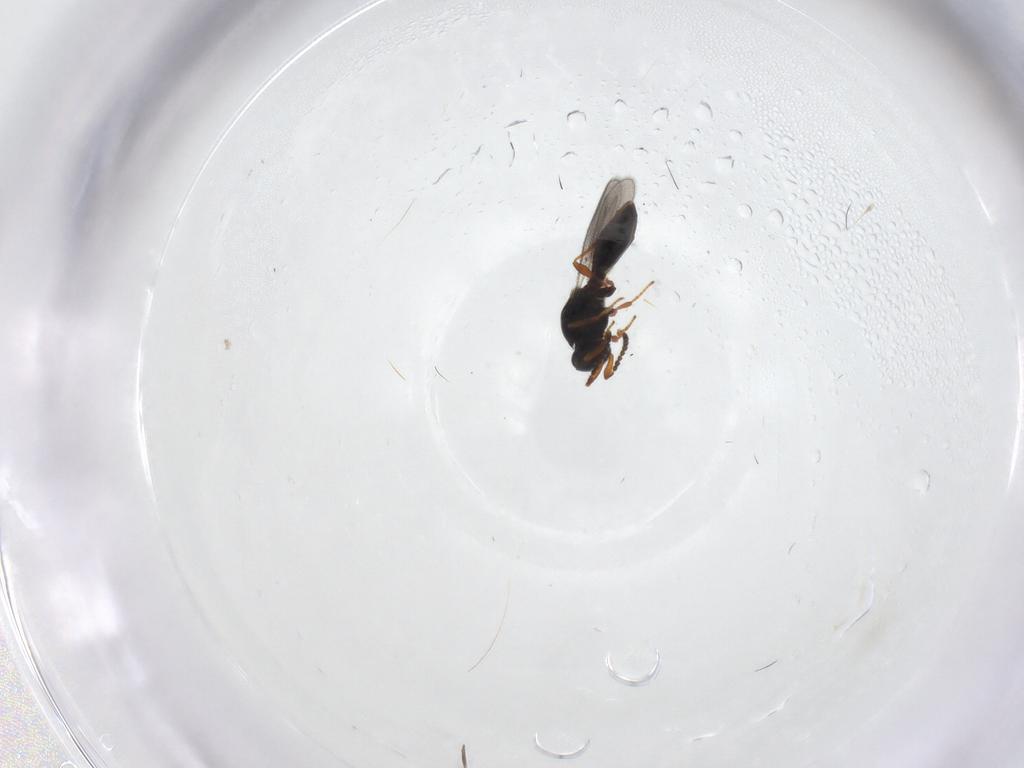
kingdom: Animalia
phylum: Arthropoda
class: Insecta
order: Hymenoptera
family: Platygastridae
